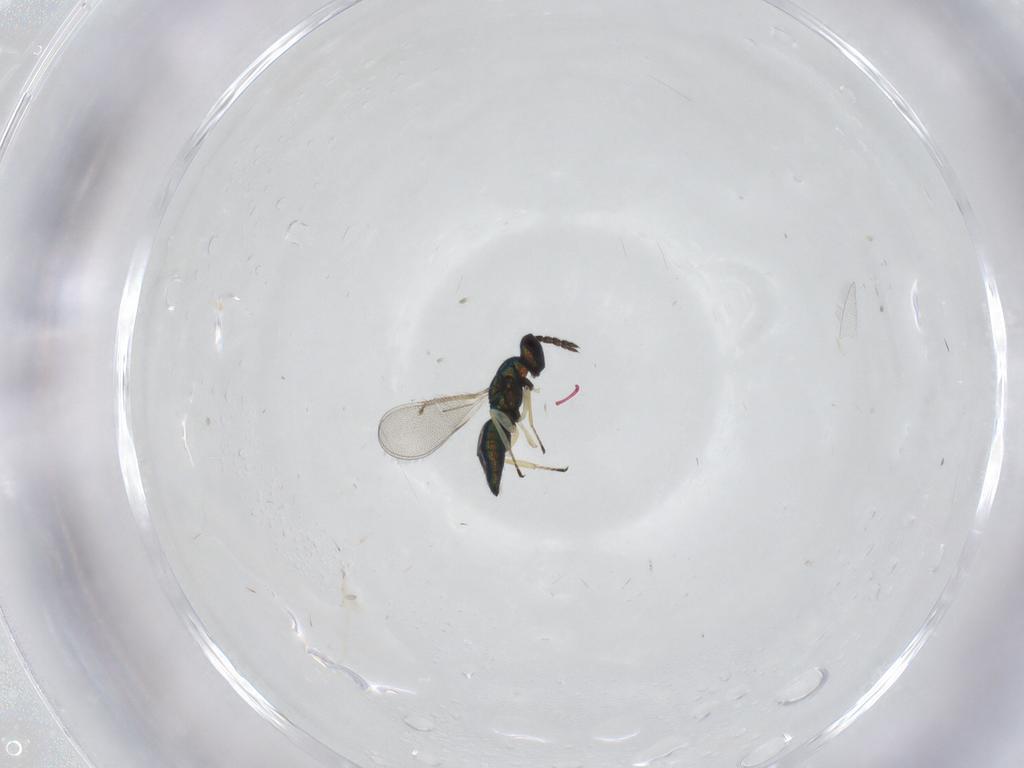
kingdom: Animalia
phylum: Arthropoda
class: Insecta
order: Hymenoptera
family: Eulophidae
